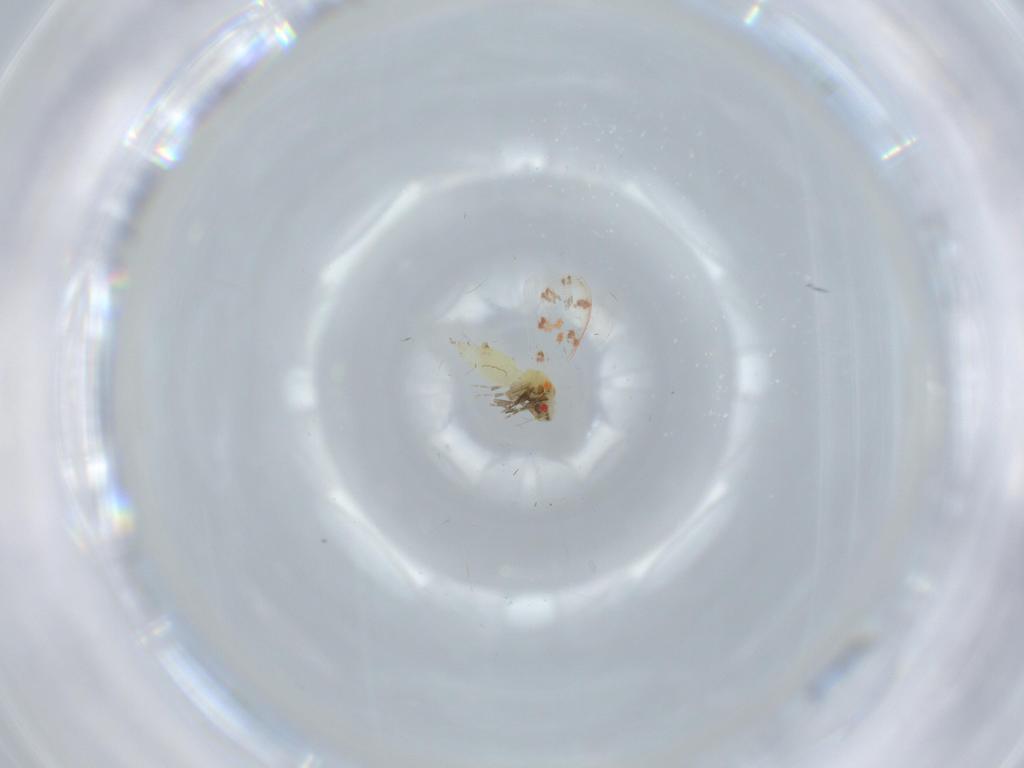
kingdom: Animalia
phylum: Arthropoda
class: Insecta
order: Hemiptera
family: Aleyrodidae
